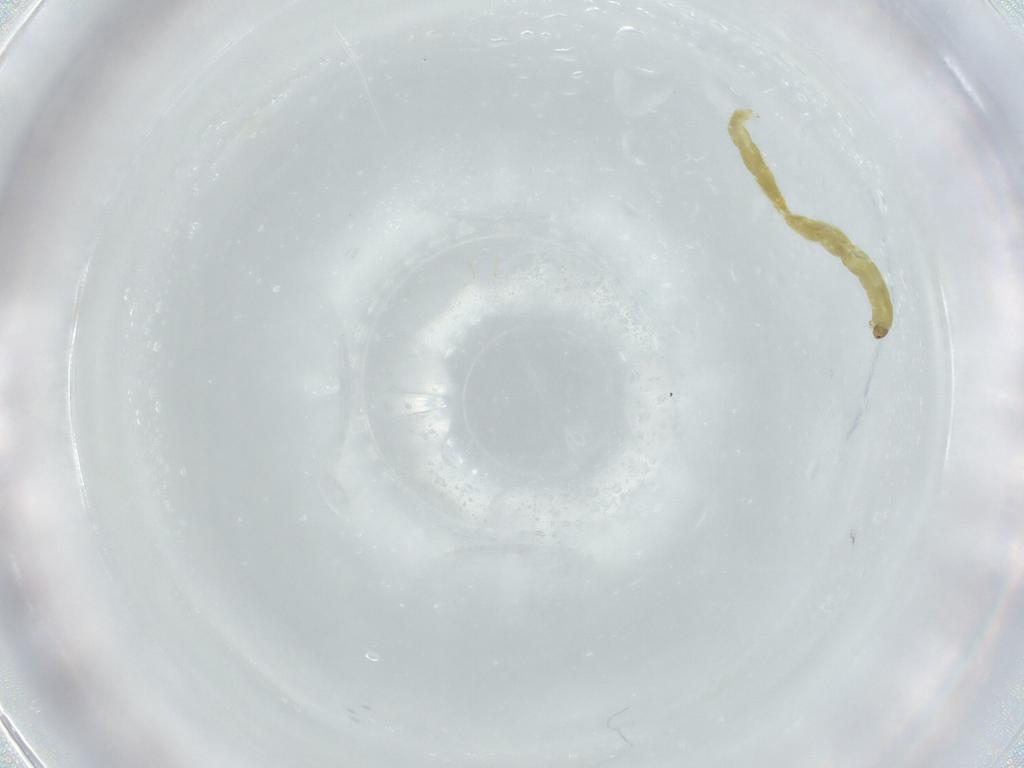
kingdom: Animalia
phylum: Arthropoda
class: Insecta
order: Diptera
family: Chironomidae
